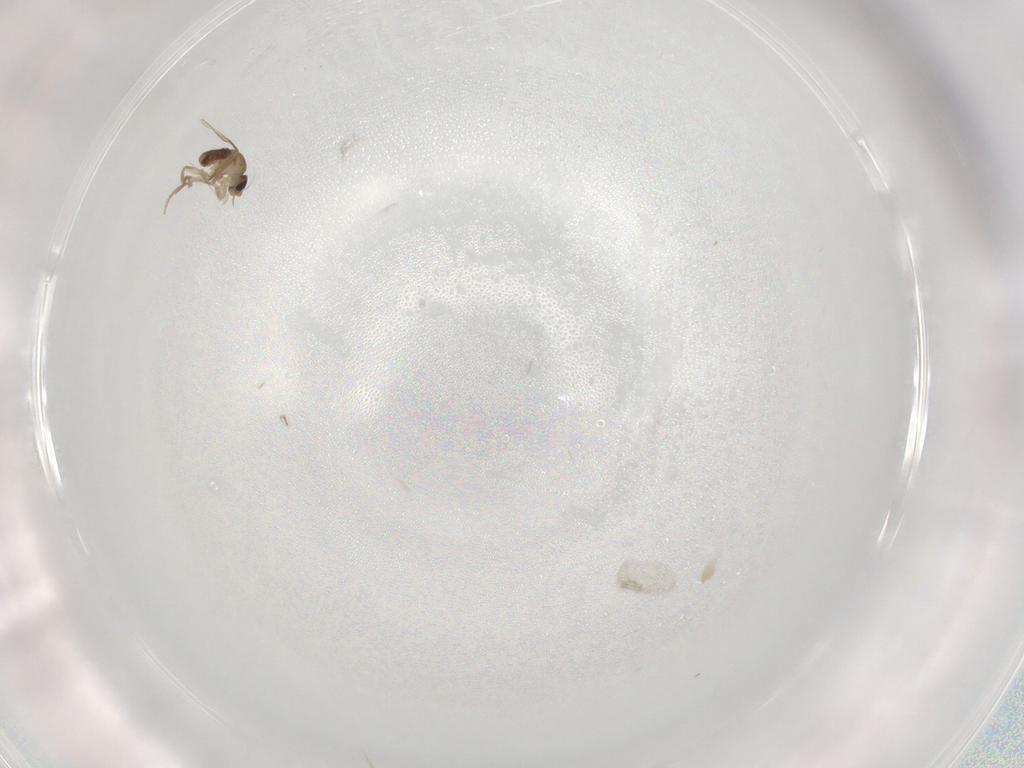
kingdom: Animalia
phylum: Arthropoda
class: Insecta
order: Diptera
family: Phoridae
